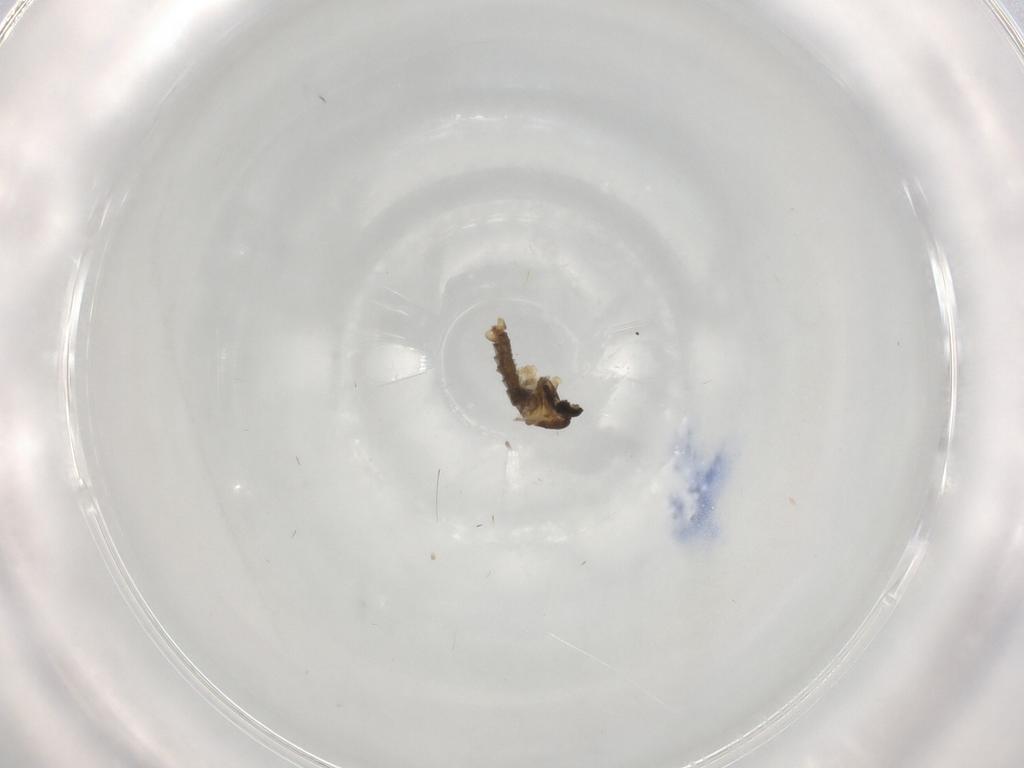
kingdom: Animalia
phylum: Arthropoda
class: Insecta
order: Diptera
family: Cecidomyiidae
